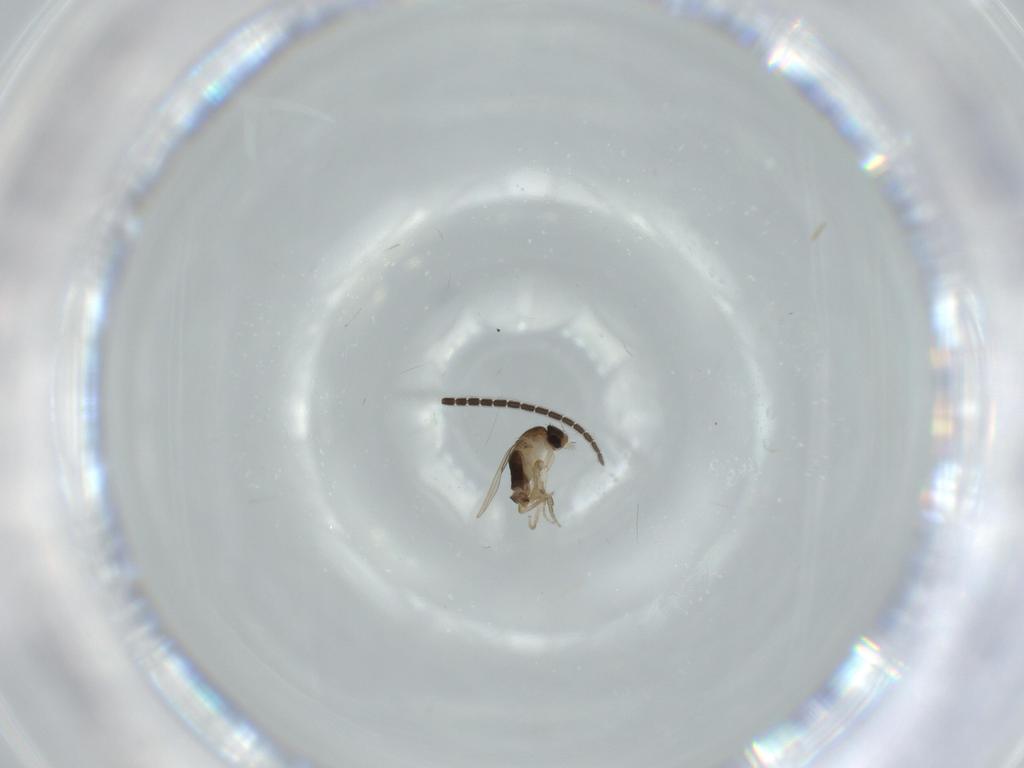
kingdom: Animalia
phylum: Arthropoda
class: Insecta
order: Diptera
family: Phoridae
